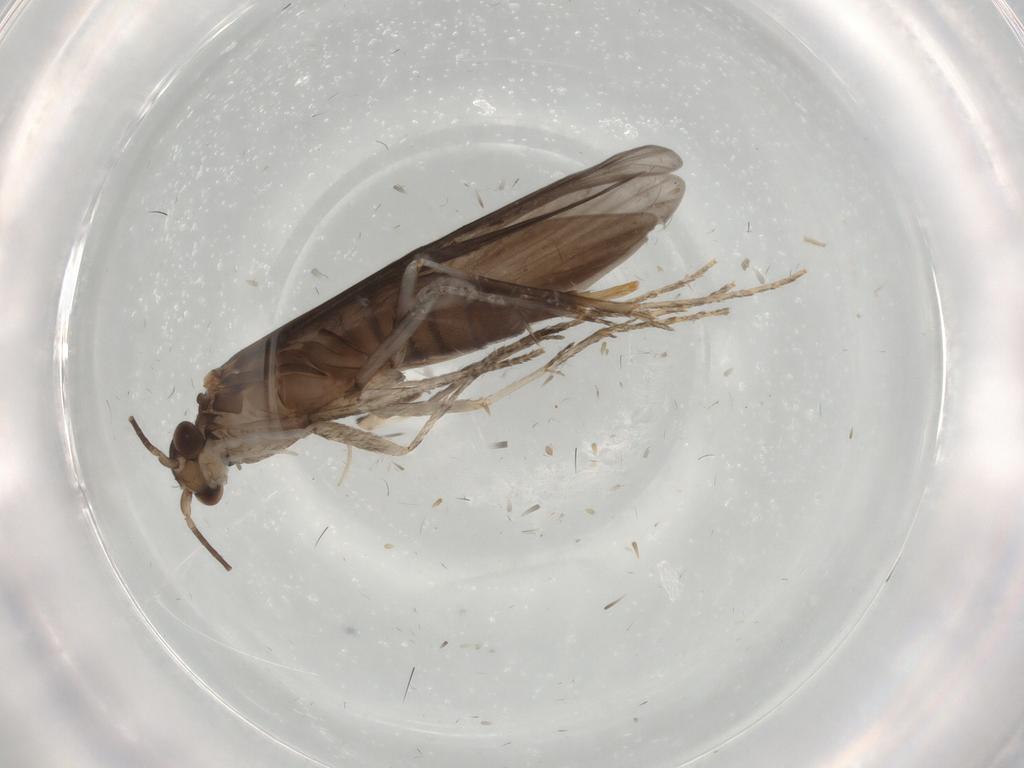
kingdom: Animalia
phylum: Arthropoda
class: Insecta
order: Trichoptera
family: Xiphocentronidae
